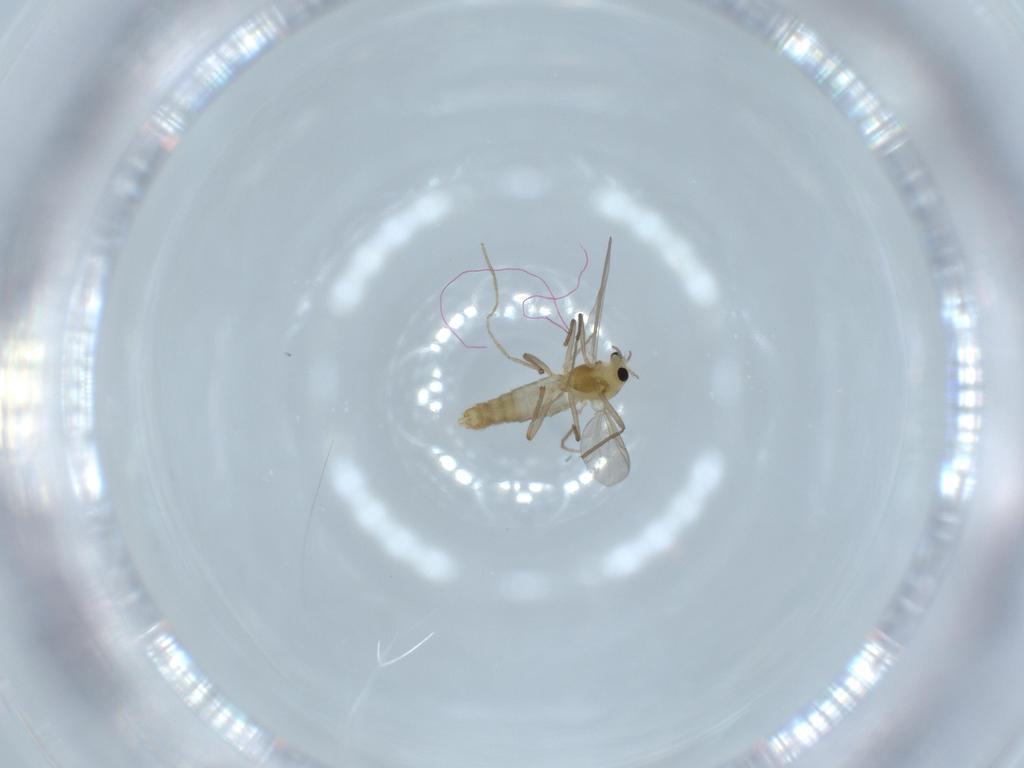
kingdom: Animalia
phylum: Arthropoda
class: Insecta
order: Diptera
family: Chironomidae
